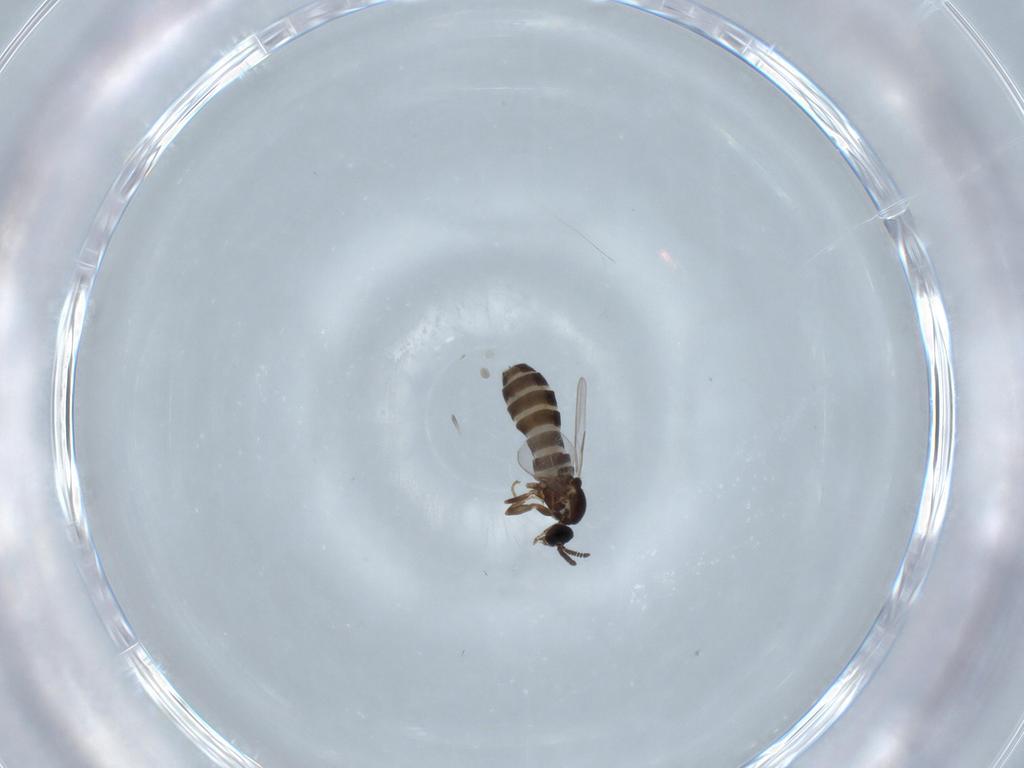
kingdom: Animalia
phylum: Arthropoda
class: Insecta
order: Diptera
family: Scatopsidae
